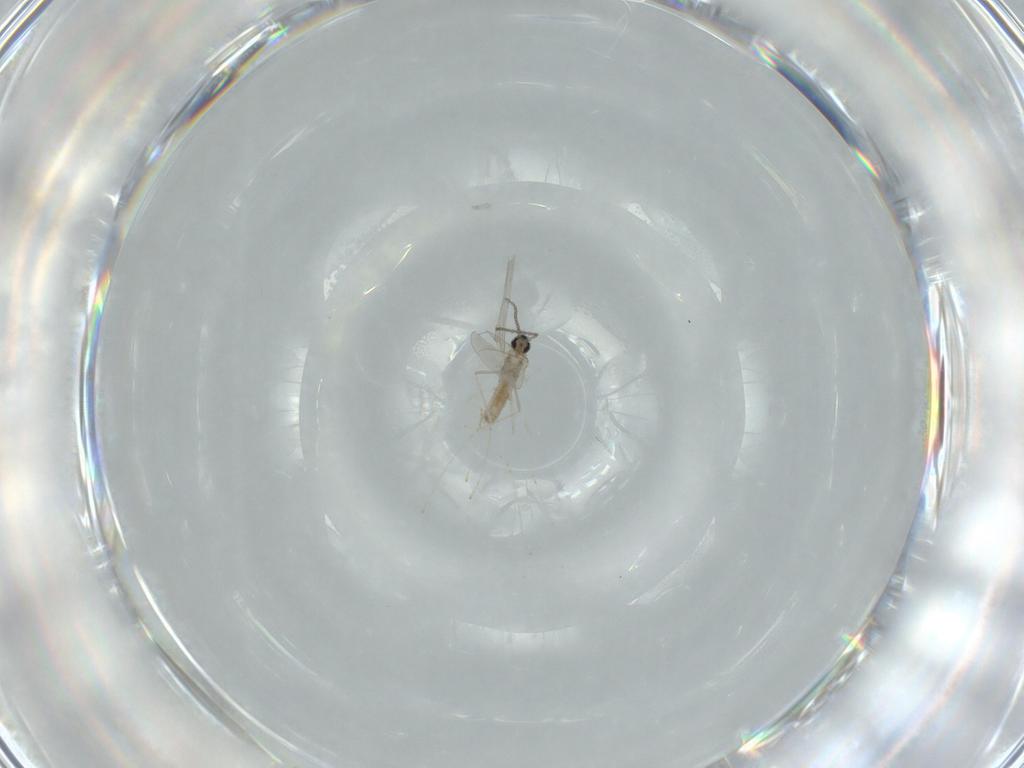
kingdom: Animalia
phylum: Arthropoda
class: Insecta
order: Diptera
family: Cecidomyiidae
